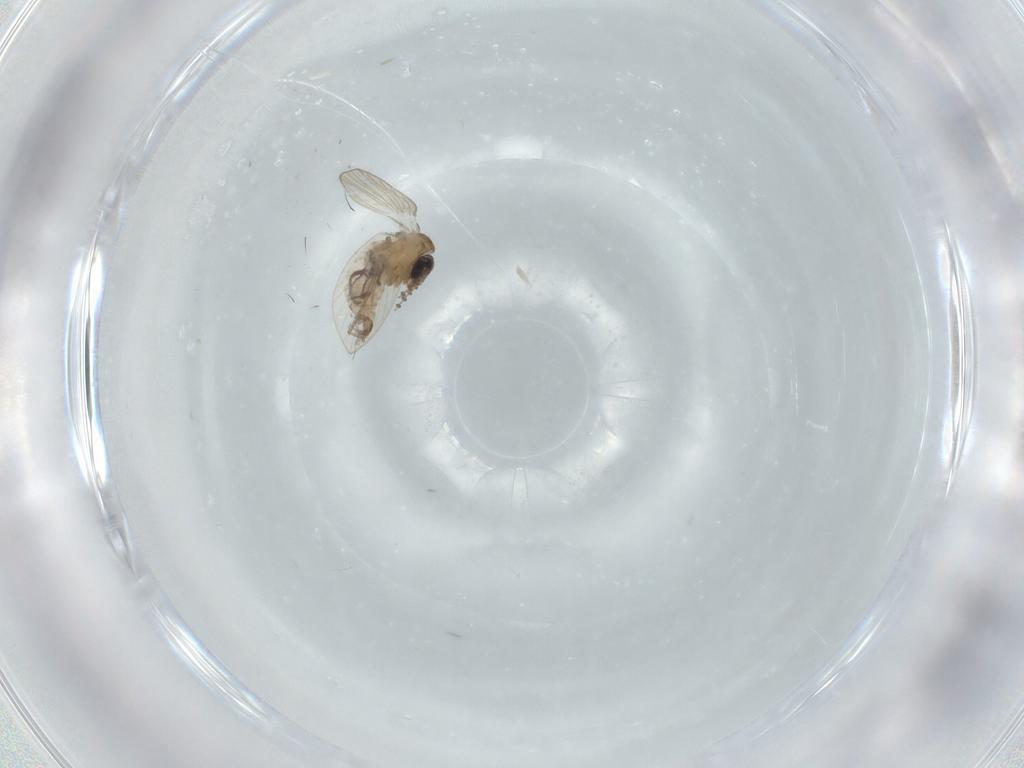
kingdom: Animalia
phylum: Arthropoda
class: Insecta
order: Diptera
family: Psychodidae
